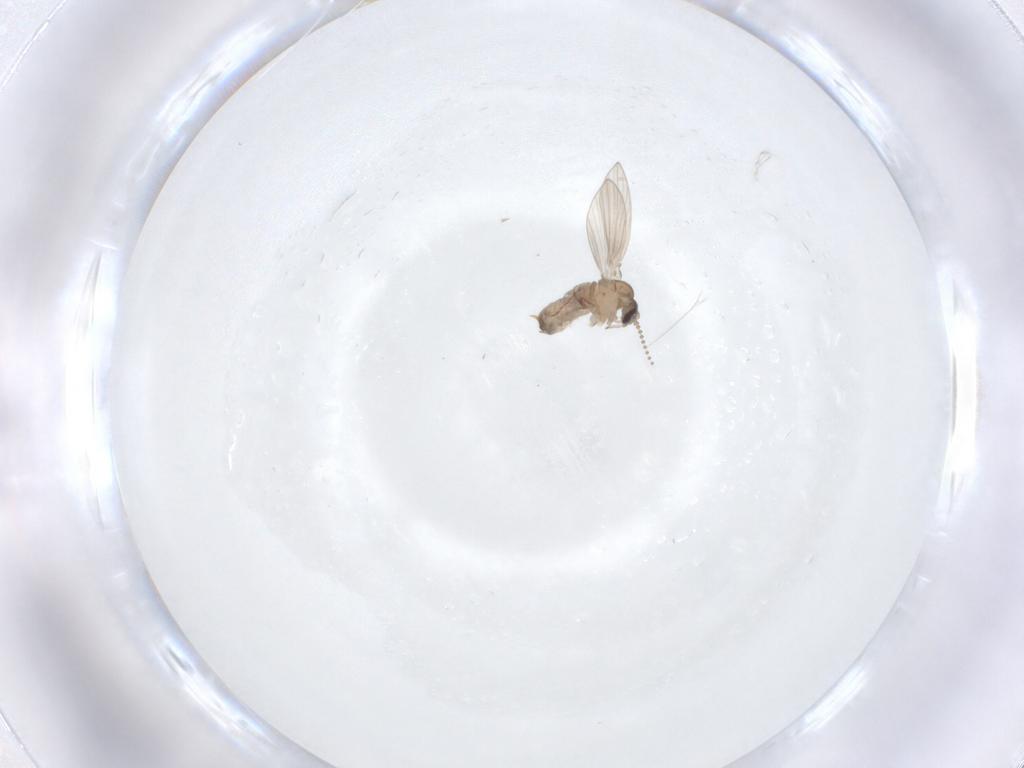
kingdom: Animalia
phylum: Arthropoda
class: Insecta
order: Diptera
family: Psychodidae
